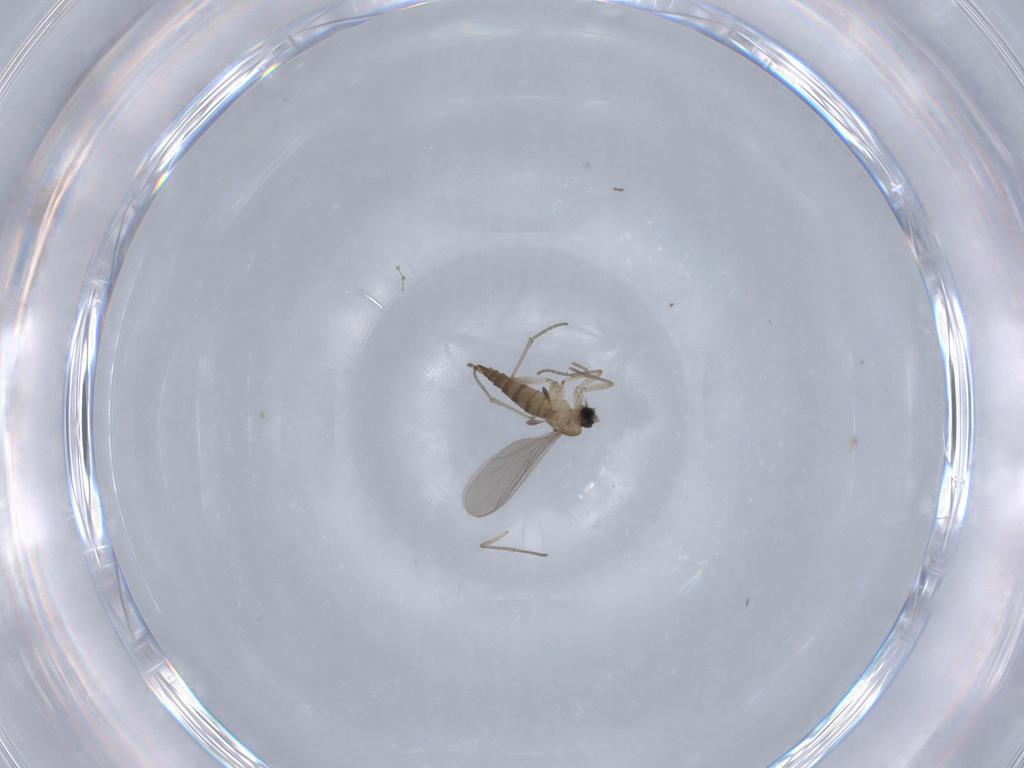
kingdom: Animalia
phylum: Arthropoda
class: Insecta
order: Diptera
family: Sciaridae
